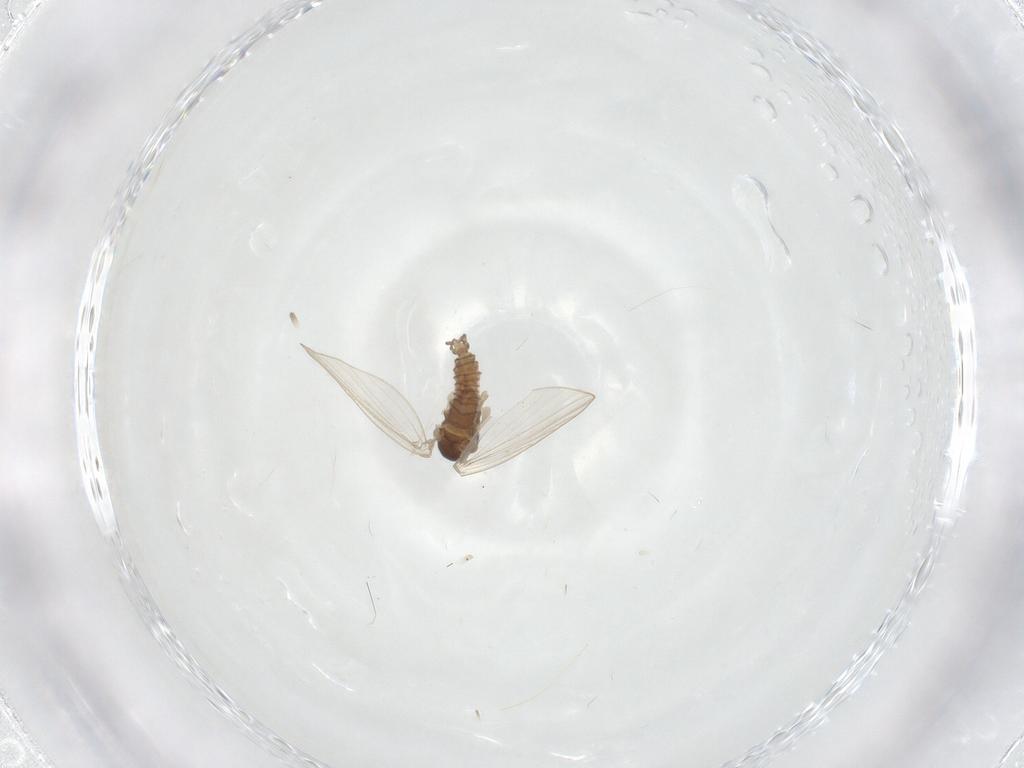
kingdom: Animalia
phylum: Arthropoda
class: Insecta
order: Diptera
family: Psychodidae
